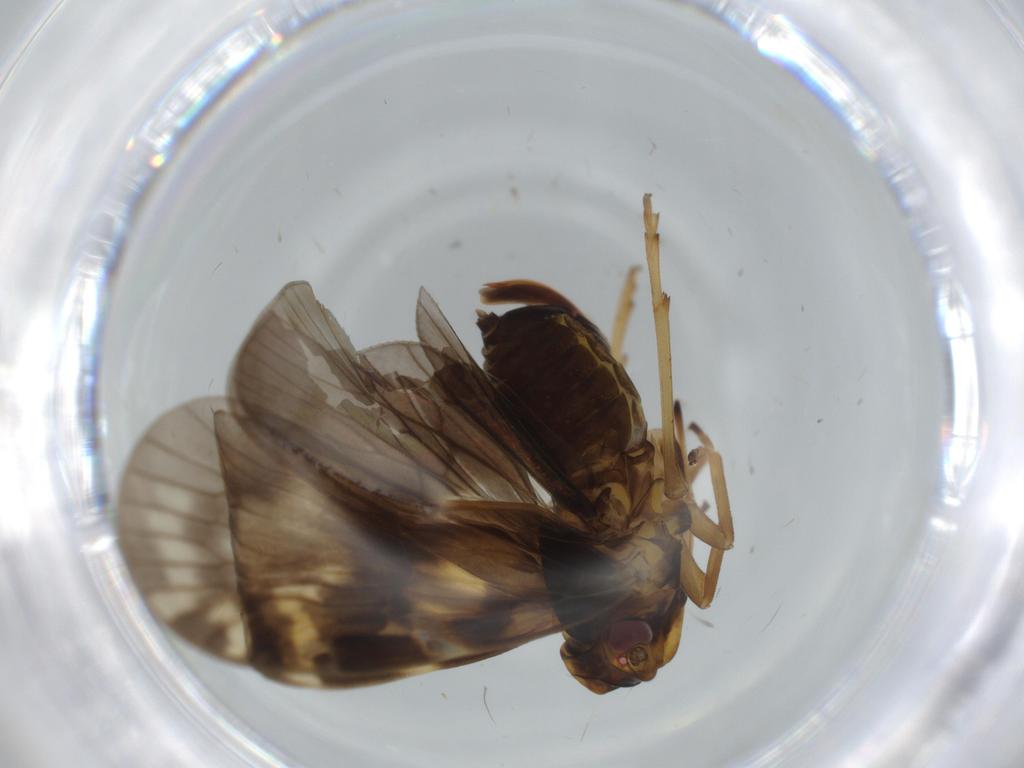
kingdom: Animalia
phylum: Arthropoda
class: Insecta
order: Hemiptera
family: Cixiidae
